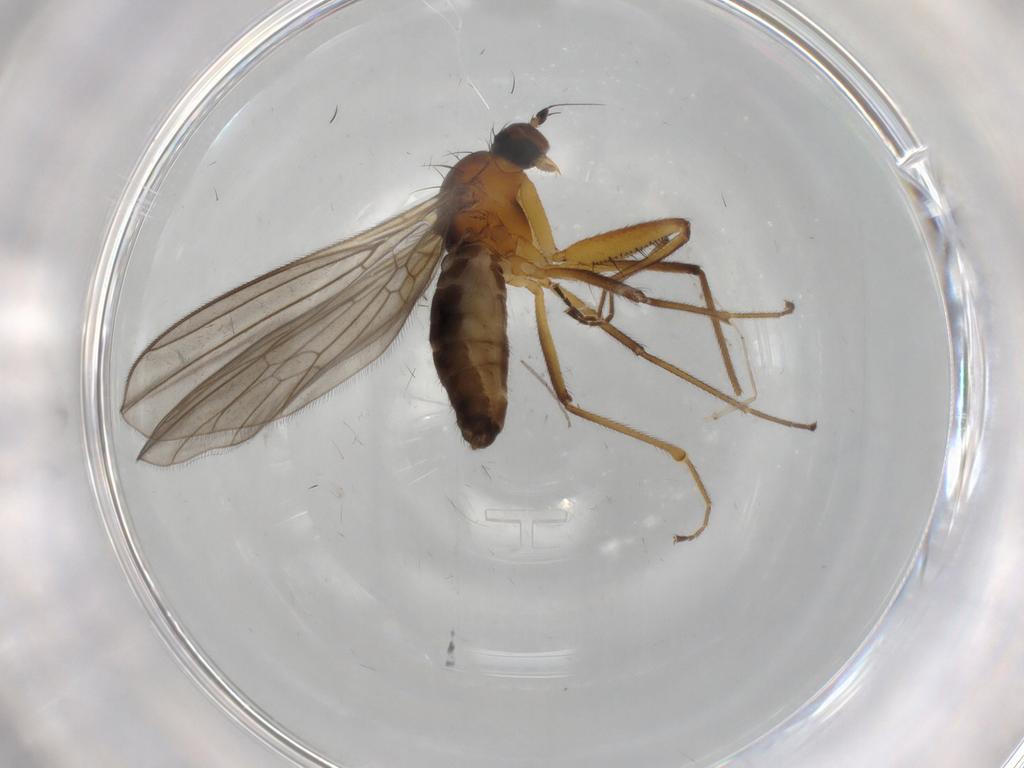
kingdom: Animalia
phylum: Arthropoda
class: Insecta
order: Diptera
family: Empididae
